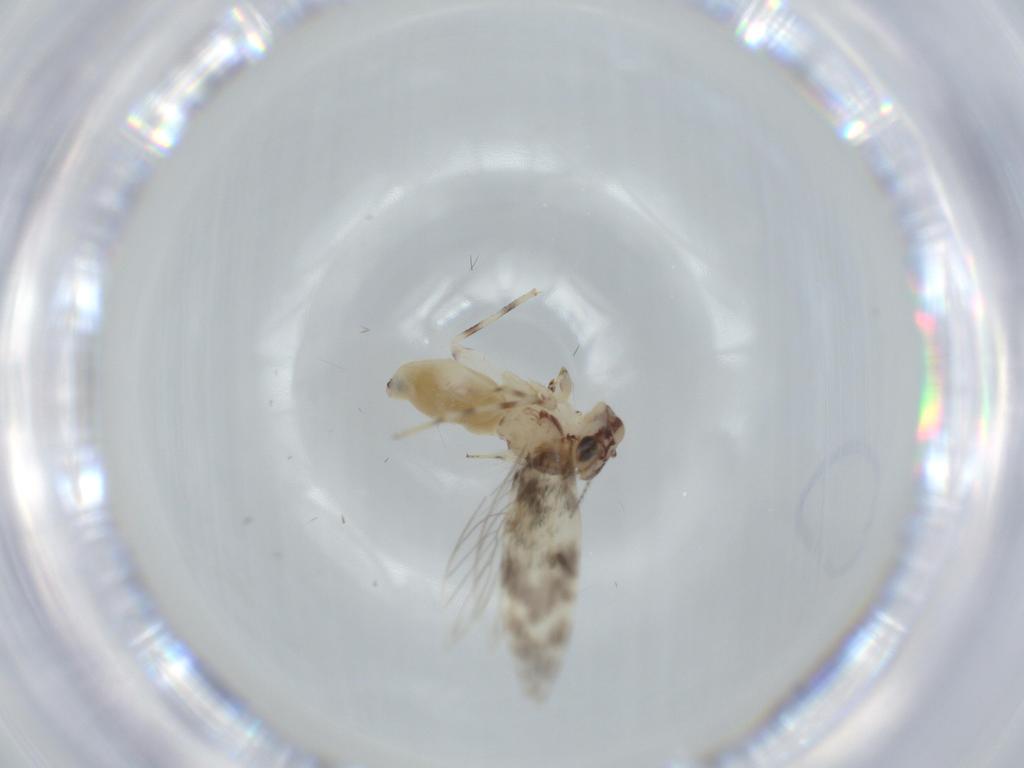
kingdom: Animalia
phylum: Arthropoda
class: Insecta
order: Psocodea
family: Lepidopsocidae
